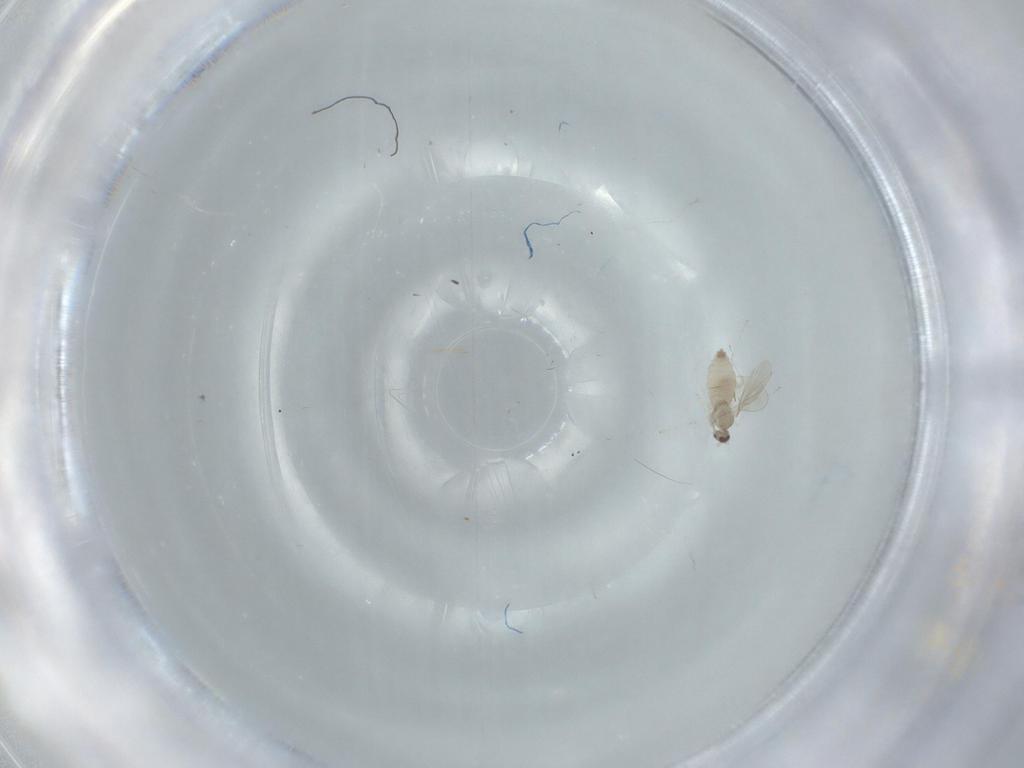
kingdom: Animalia
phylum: Arthropoda
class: Insecta
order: Diptera
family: Cecidomyiidae
